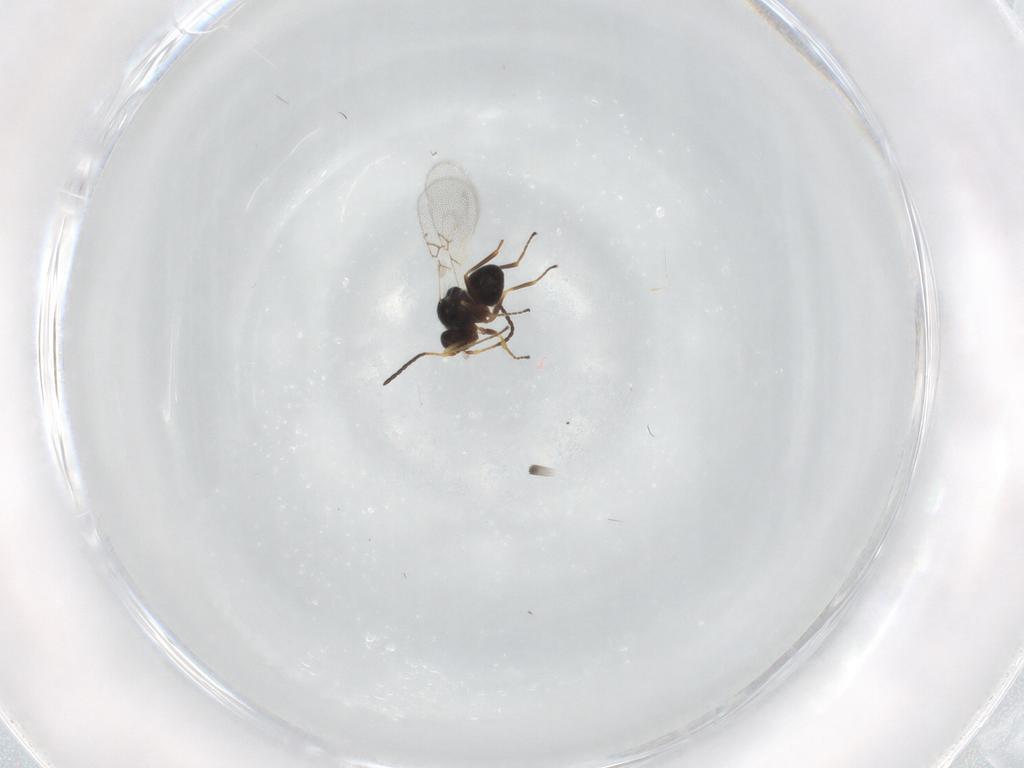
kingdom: Animalia
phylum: Arthropoda
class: Insecta
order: Hymenoptera
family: Figitidae
